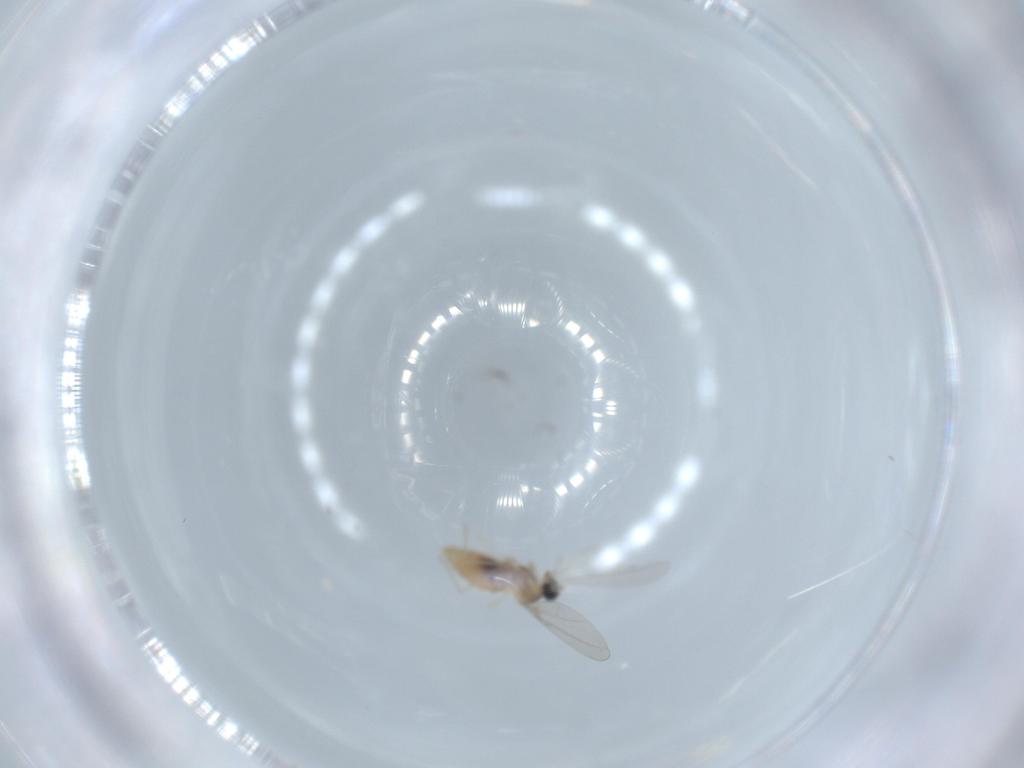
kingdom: Animalia
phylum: Arthropoda
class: Insecta
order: Diptera
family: Cecidomyiidae
